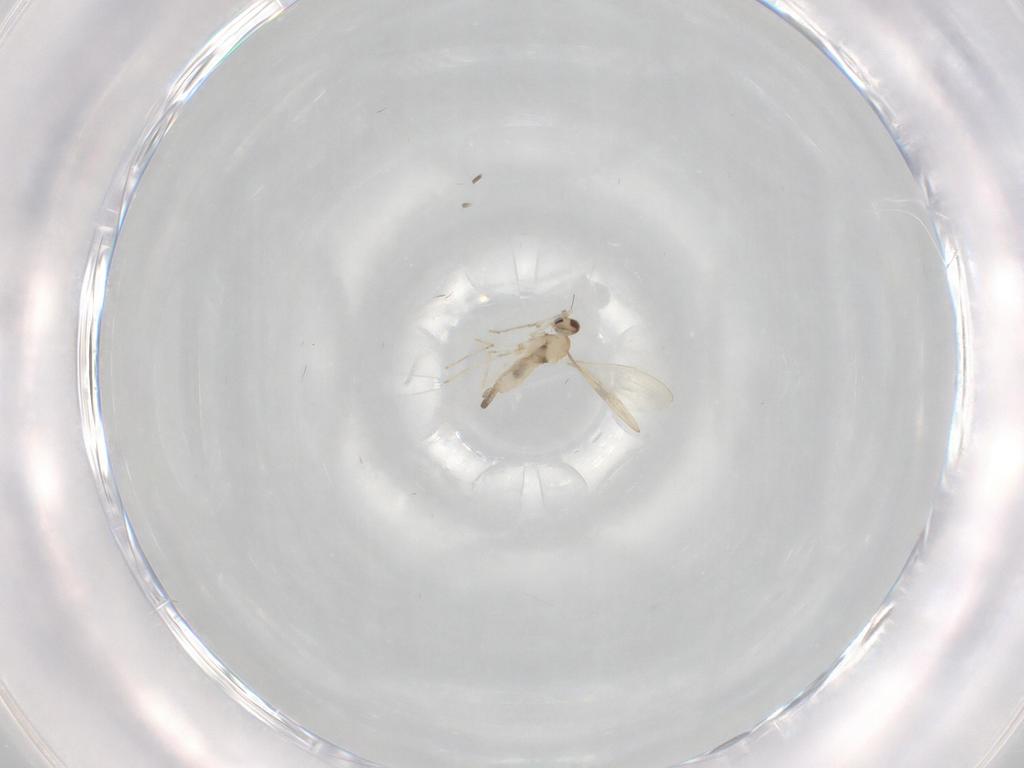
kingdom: Animalia
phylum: Arthropoda
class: Insecta
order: Diptera
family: Cecidomyiidae
